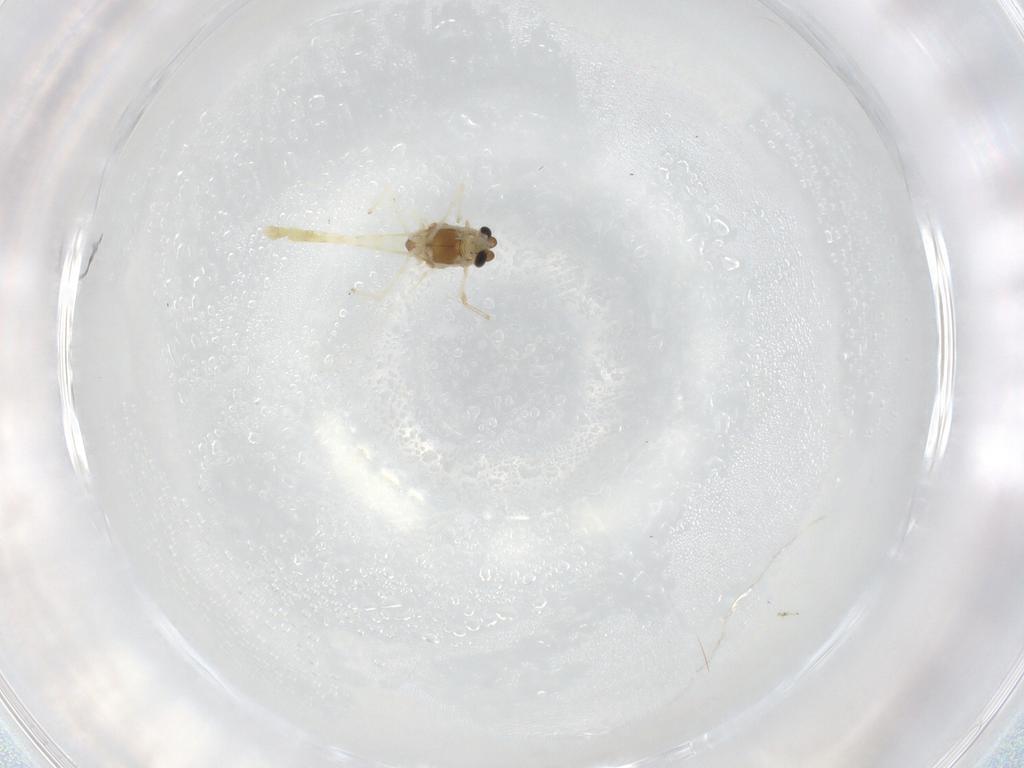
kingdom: Animalia
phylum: Arthropoda
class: Insecta
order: Diptera
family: Chironomidae
